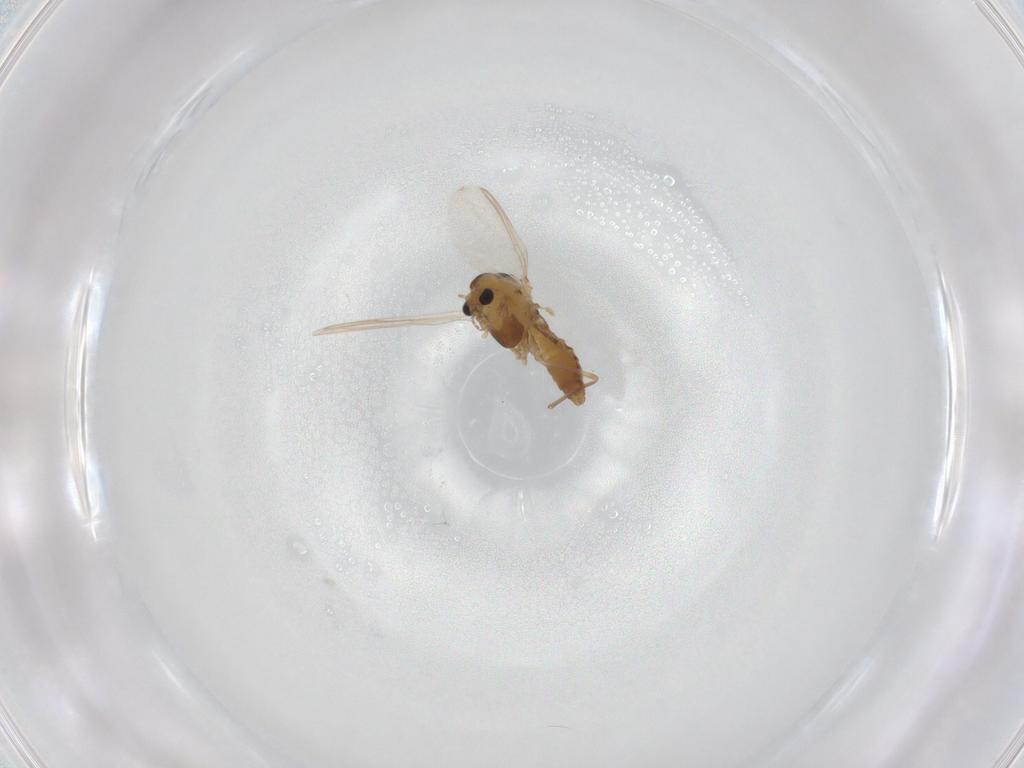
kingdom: Animalia
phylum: Arthropoda
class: Insecta
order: Diptera
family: Chironomidae
